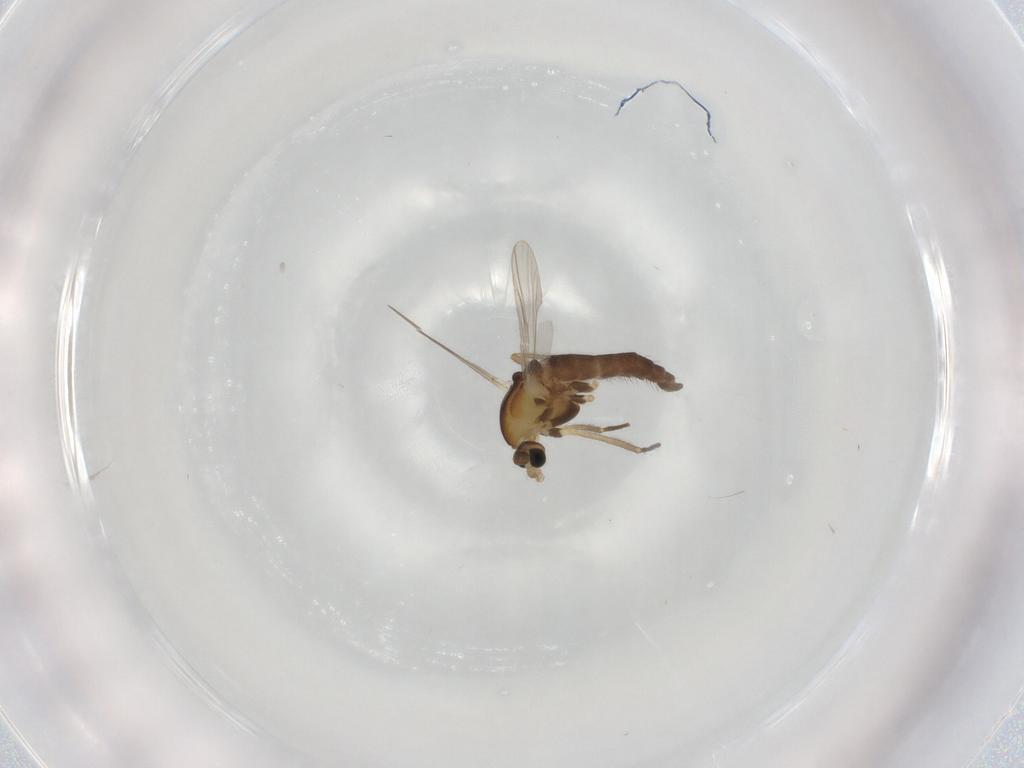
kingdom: Animalia
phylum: Arthropoda
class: Insecta
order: Diptera
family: Chironomidae
